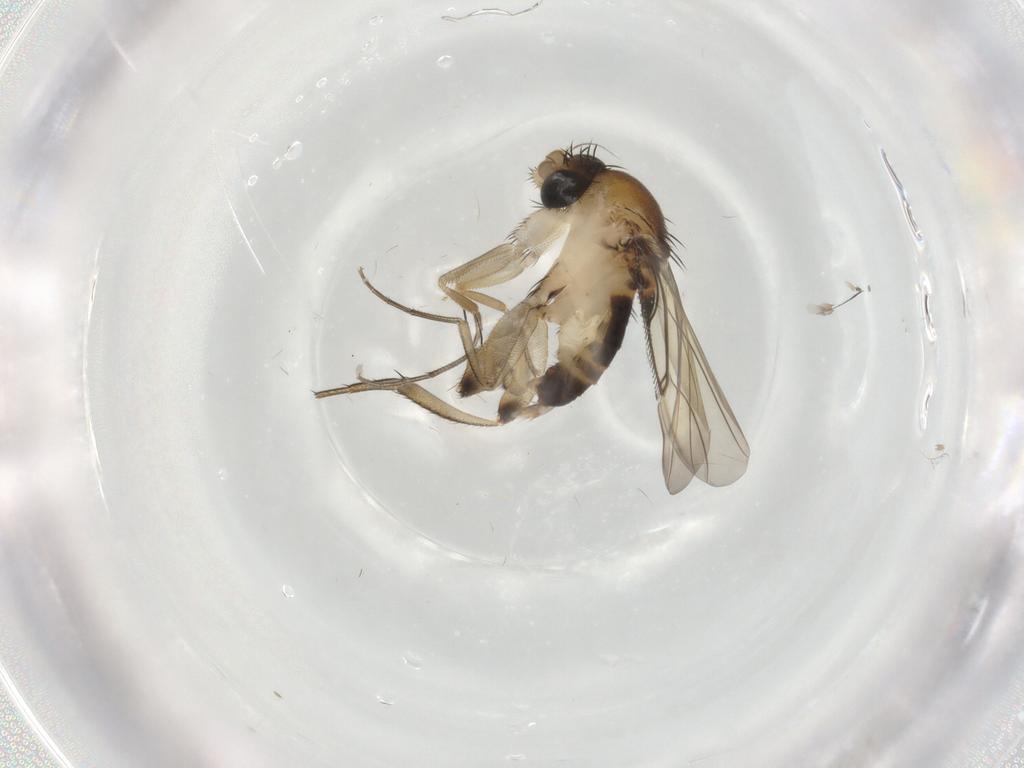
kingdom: Animalia
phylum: Arthropoda
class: Insecta
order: Diptera
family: Phoridae
